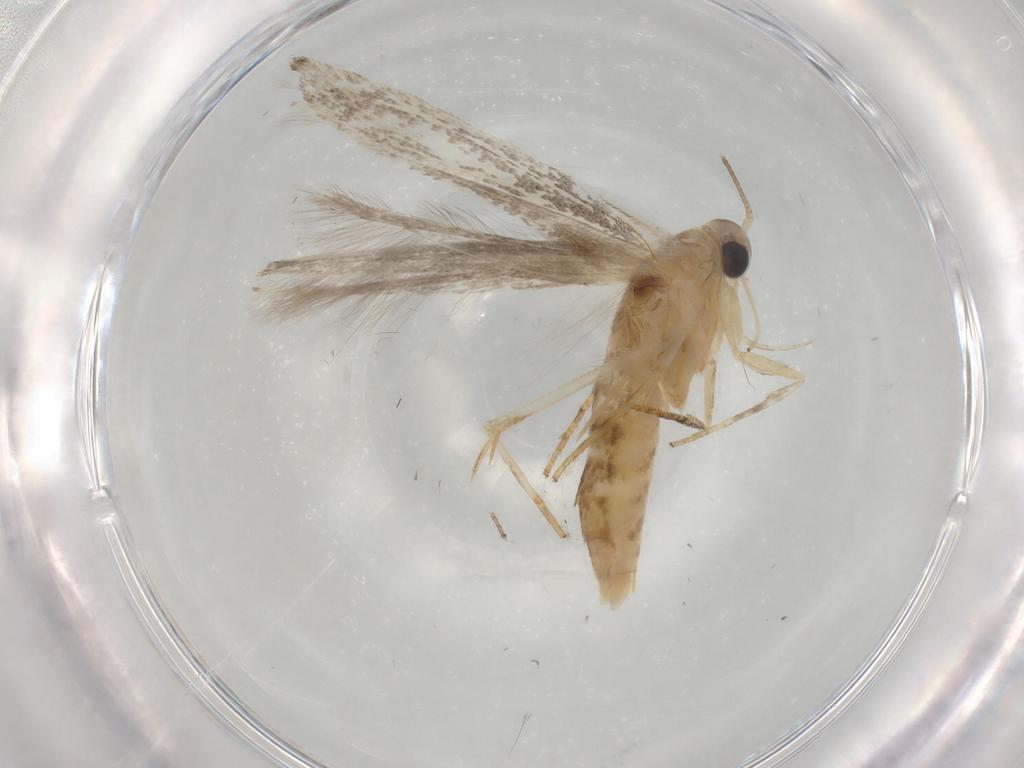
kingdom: Animalia
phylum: Arthropoda
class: Insecta
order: Lepidoptera
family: Gelechiidae
